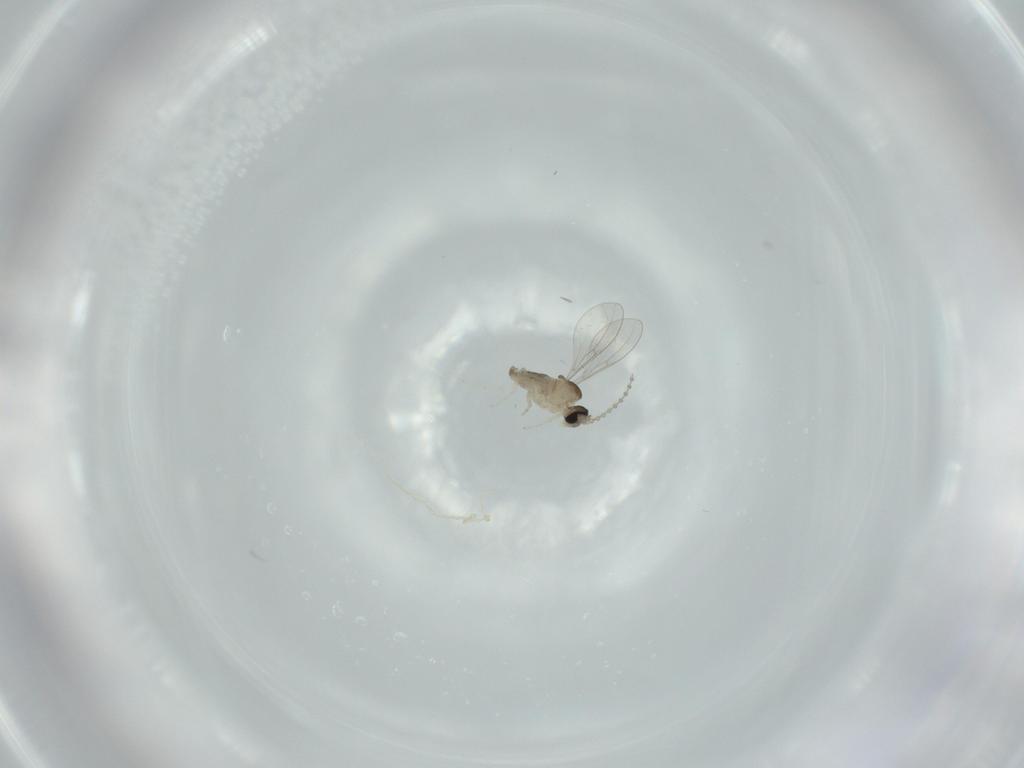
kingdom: Animalia
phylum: Arthropoda
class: Insecta
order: Diptera
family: Cecidomyiidae
